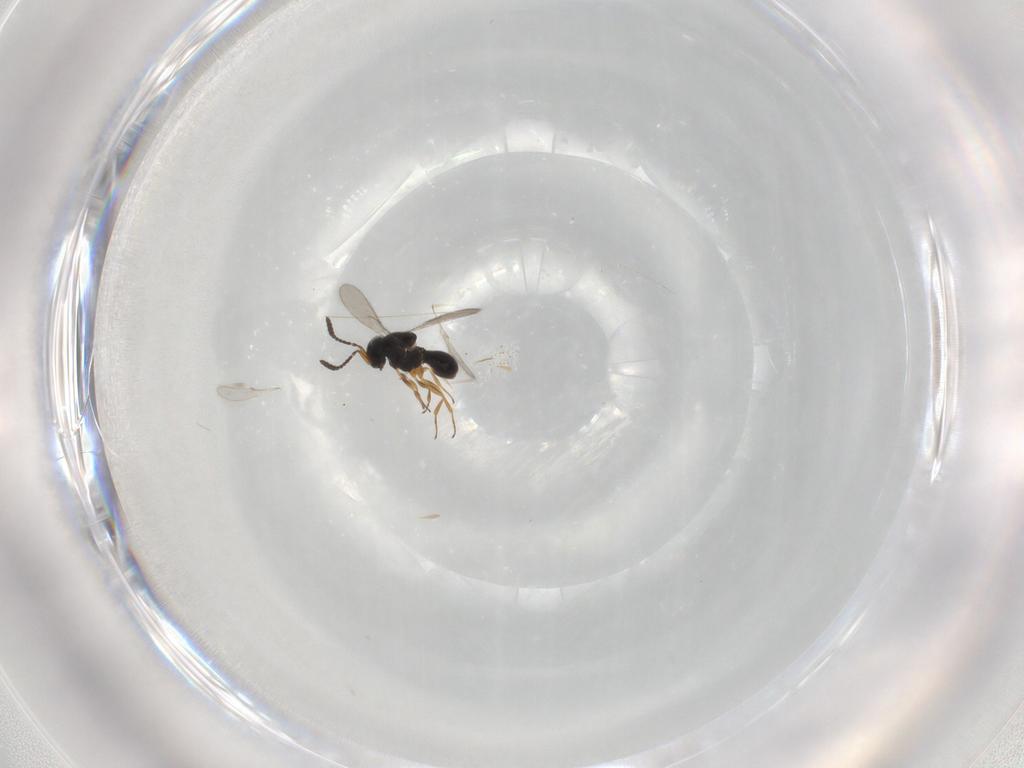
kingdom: Animalia
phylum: Arthropoda
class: Insecta
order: Hymenoptera
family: Scelionidae
